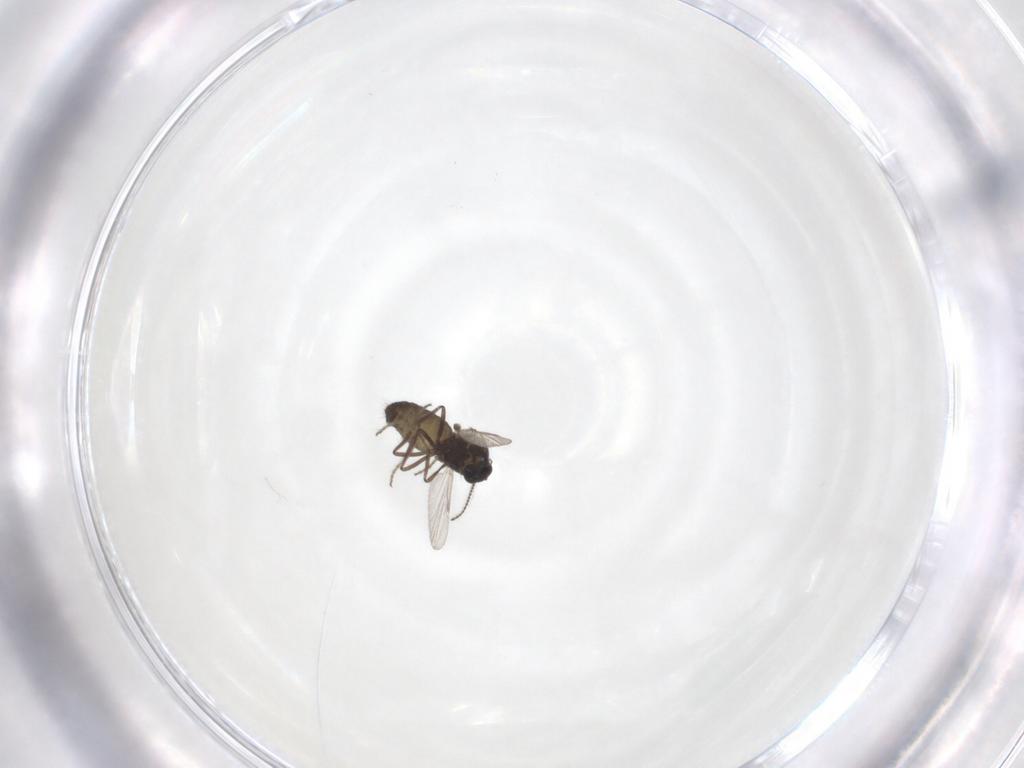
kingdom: Animalia
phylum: Arthropoda
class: Insecta
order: Diptera
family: Ceratopogonidae
